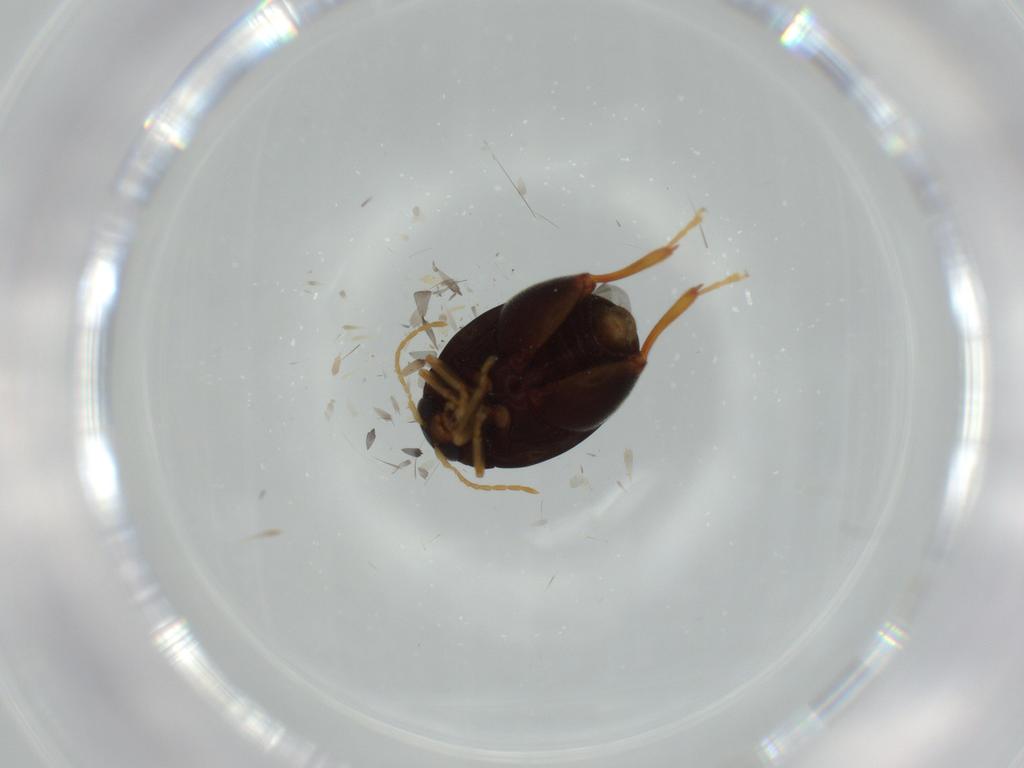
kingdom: Animalia
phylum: Arthropoda
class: Insecta
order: Coleoptera
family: Chrysomelidae
